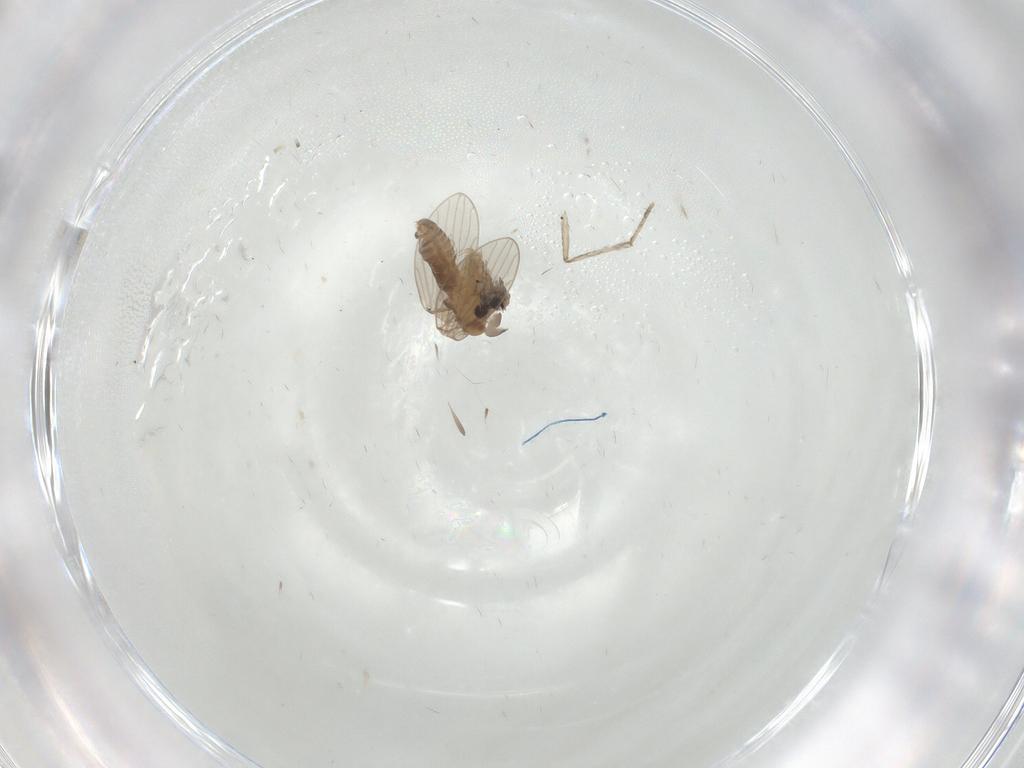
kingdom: Animalia
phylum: Arthropoda
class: Insecta
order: Diptera
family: Psychodidae
